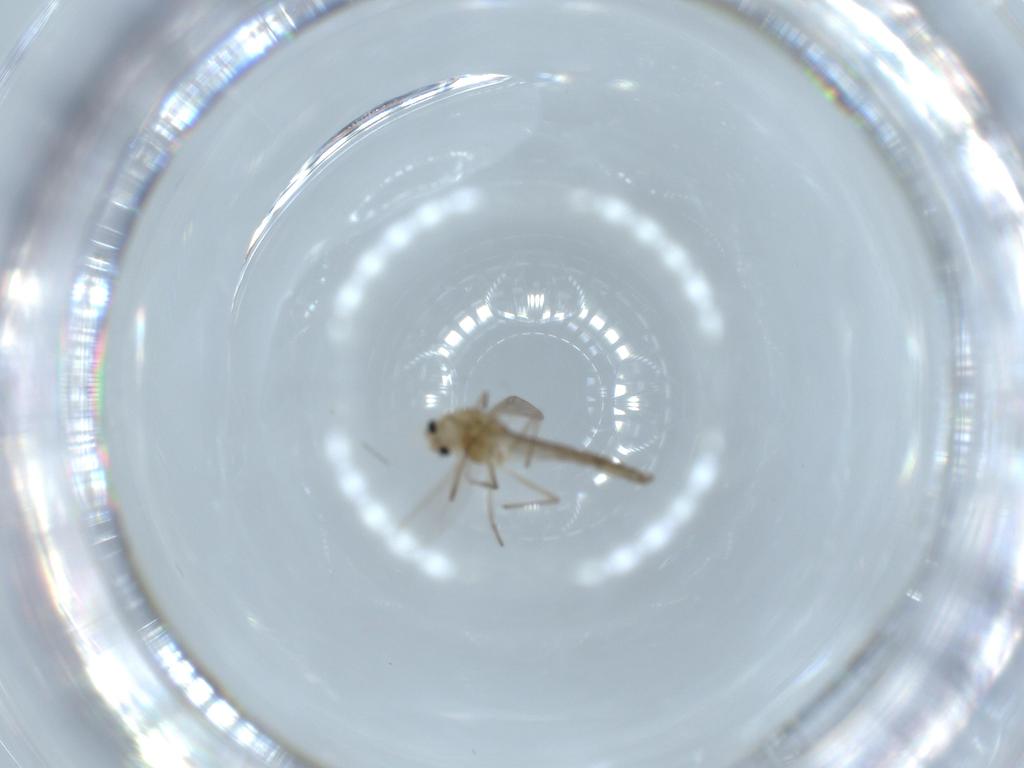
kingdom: Animalia
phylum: Arthropoda
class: Insecta
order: Diptera
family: Chironomidae
